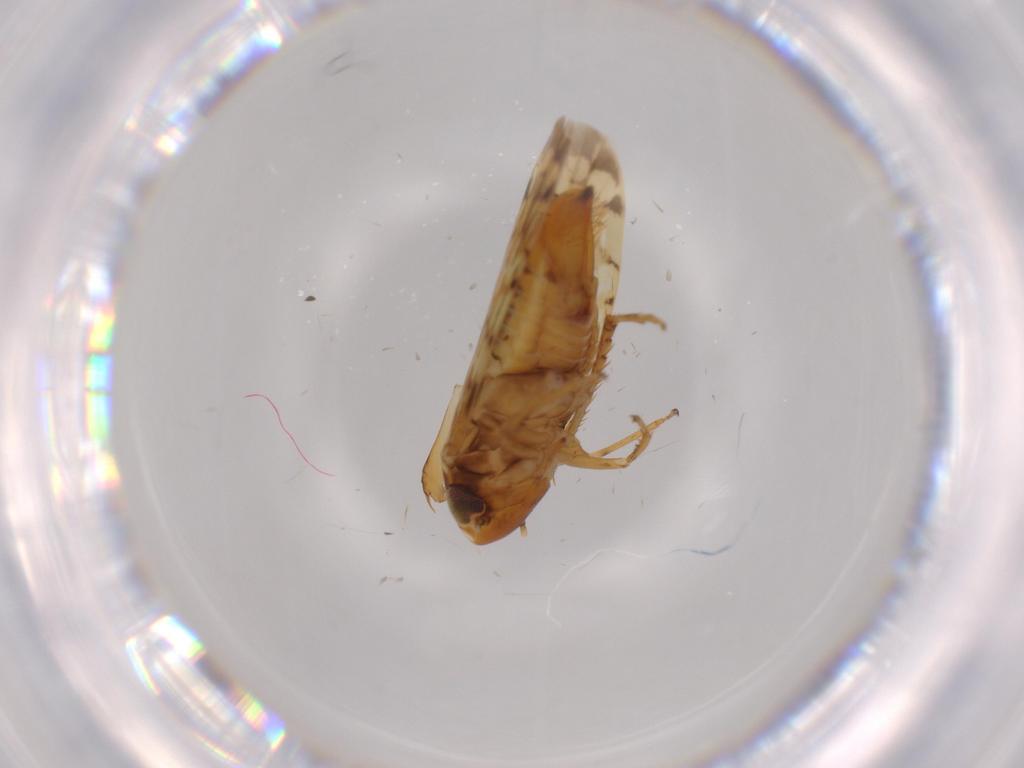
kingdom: Animalia
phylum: Arthropoda
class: Insecta
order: Hemiptera
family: Cicadellidae
